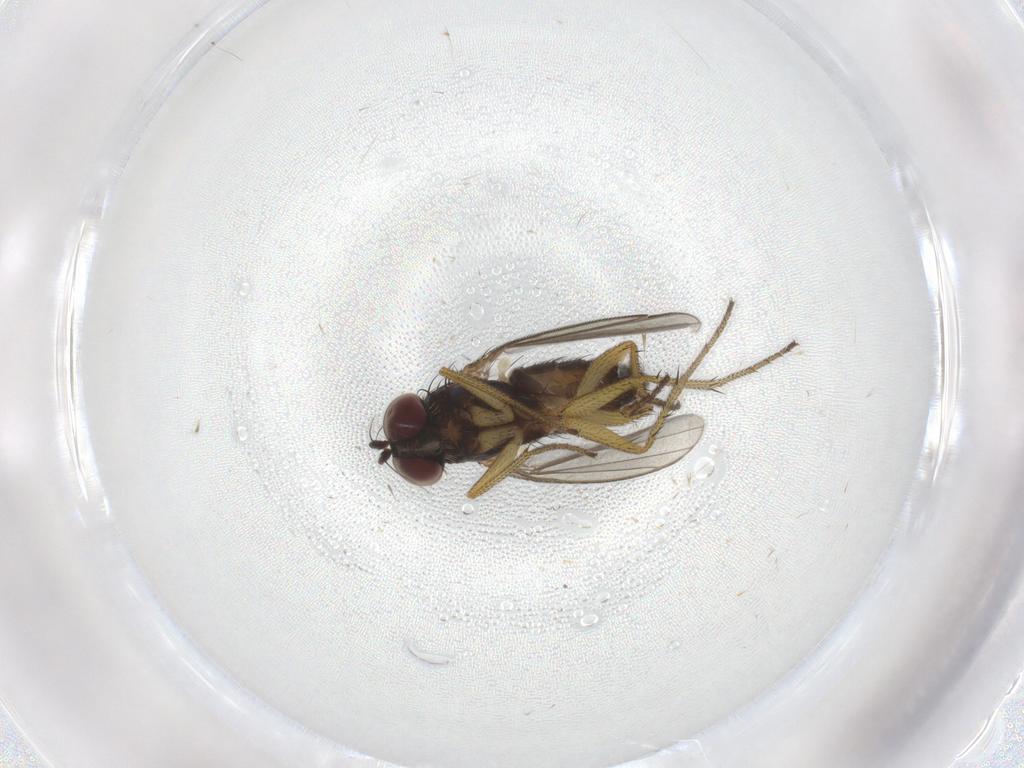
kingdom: Animalia
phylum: Arthropoda
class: Insecta
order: Diptera
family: Dolichopodidae
